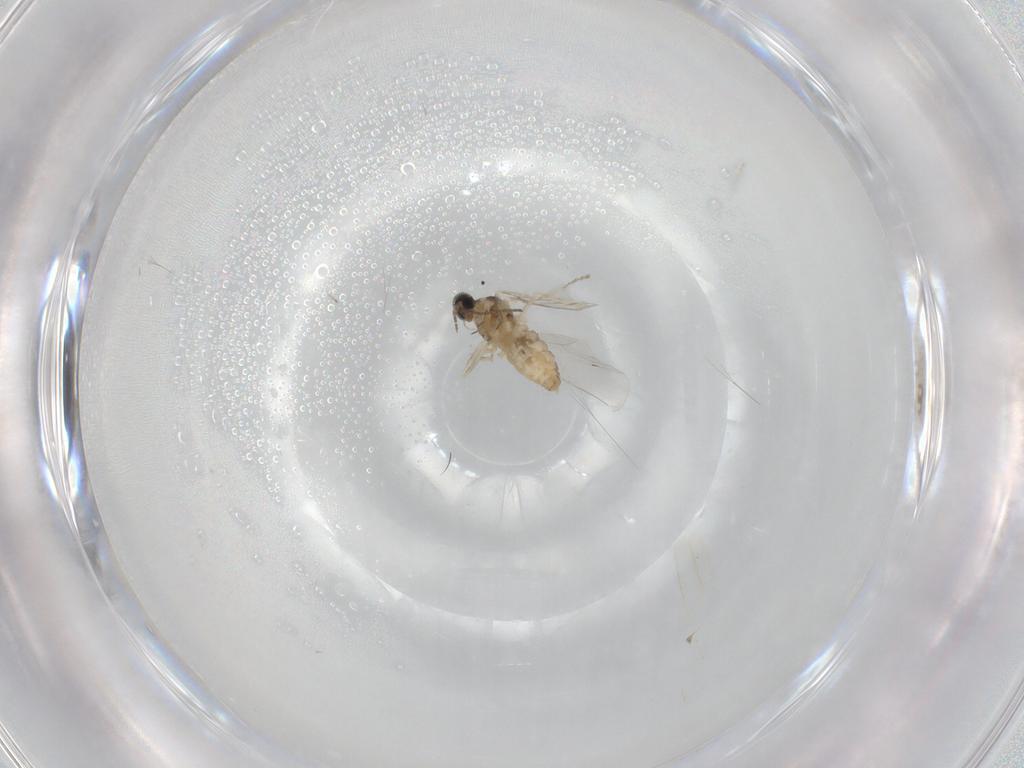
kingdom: Animalia
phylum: Arthropoda
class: Insecta
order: Diptera
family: Cecidomyiidae
